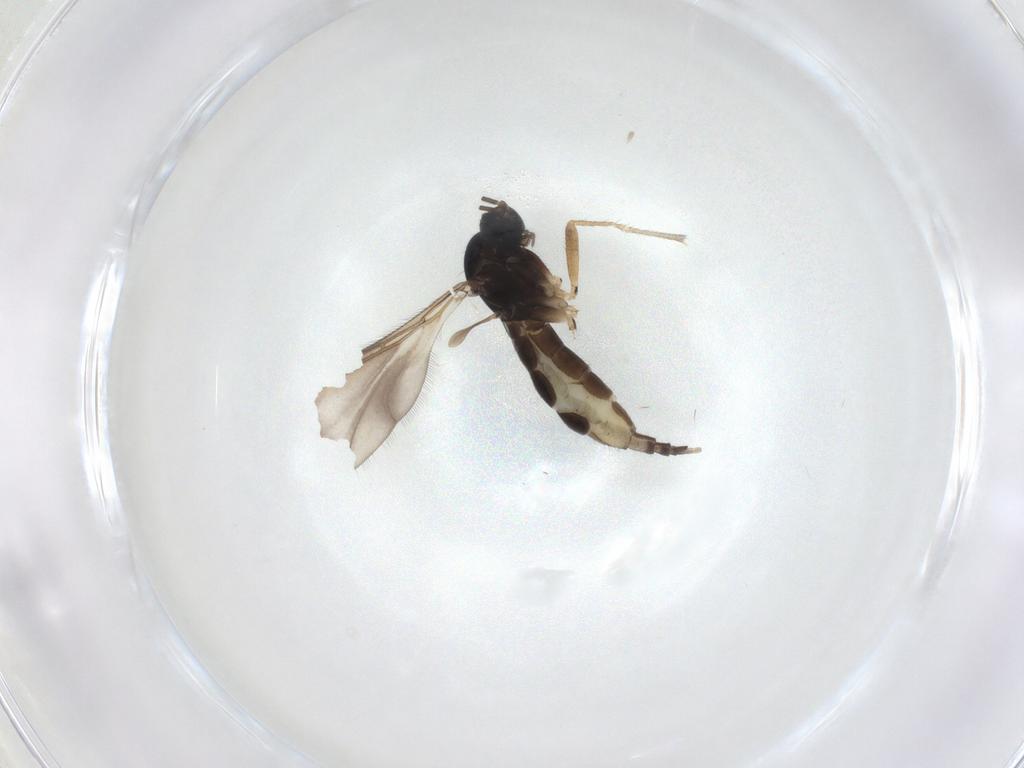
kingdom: Animalia
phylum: Arthropoda
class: Insecta
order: Diptera
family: Sciaridae
